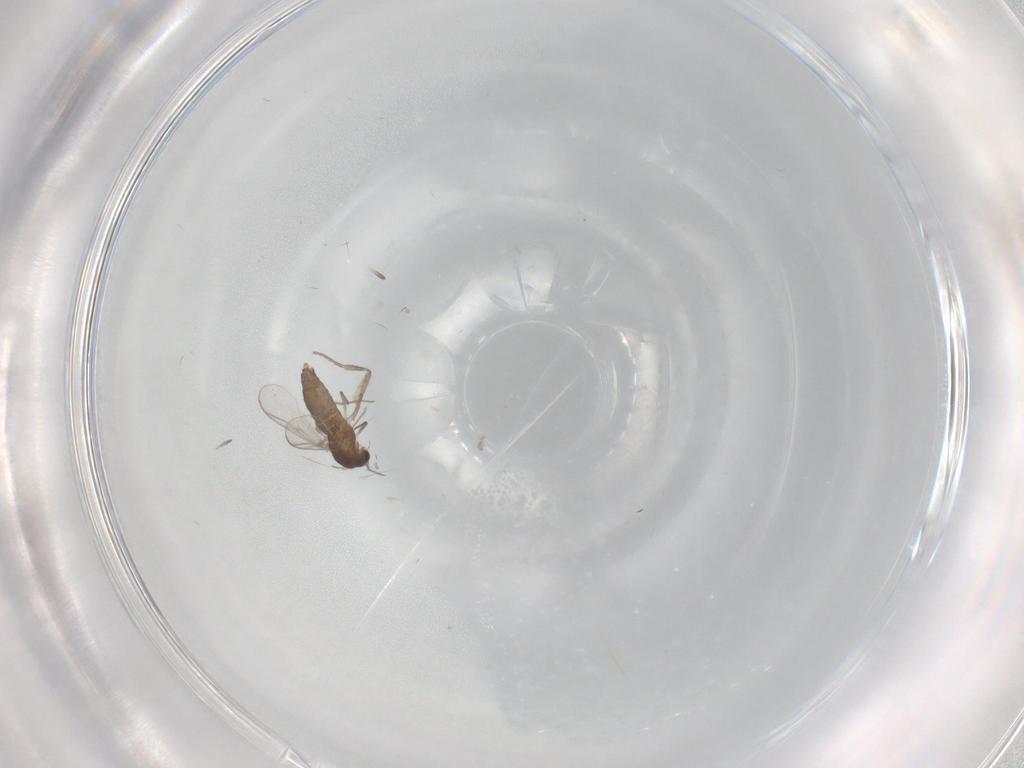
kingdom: Animalia
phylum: Arthropoda
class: Insecta
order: Diptera
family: Chironomidae
